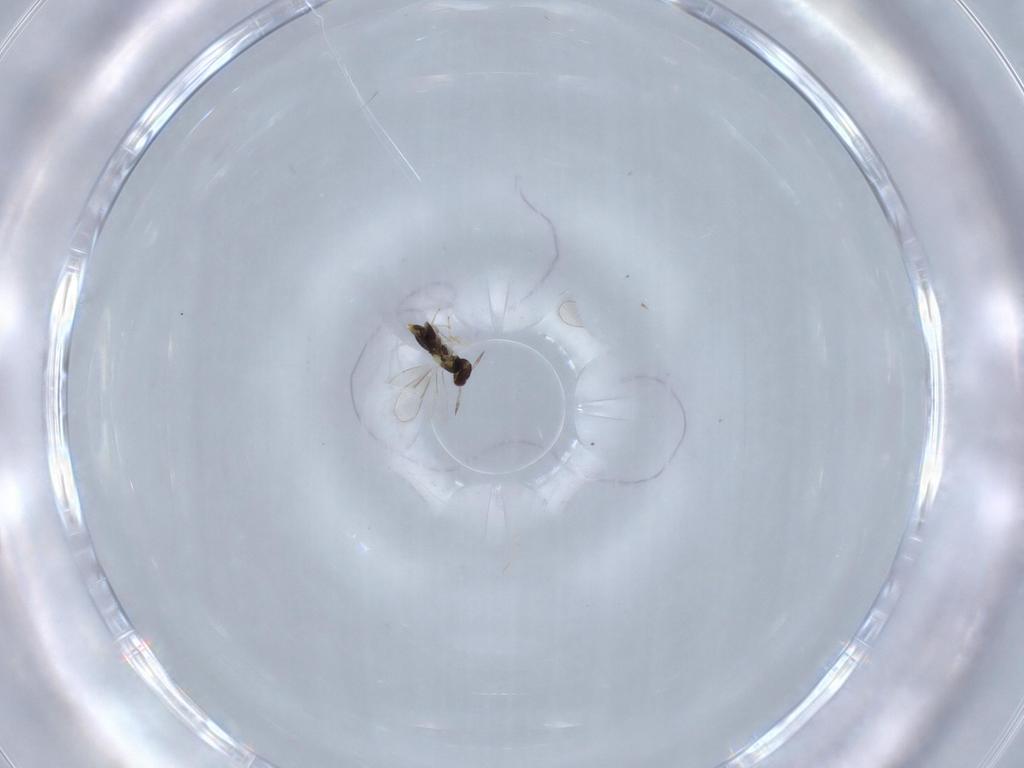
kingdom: Animalia
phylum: Arthropoda
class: Insecta
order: Hymenoptera
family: Aphelinidae
